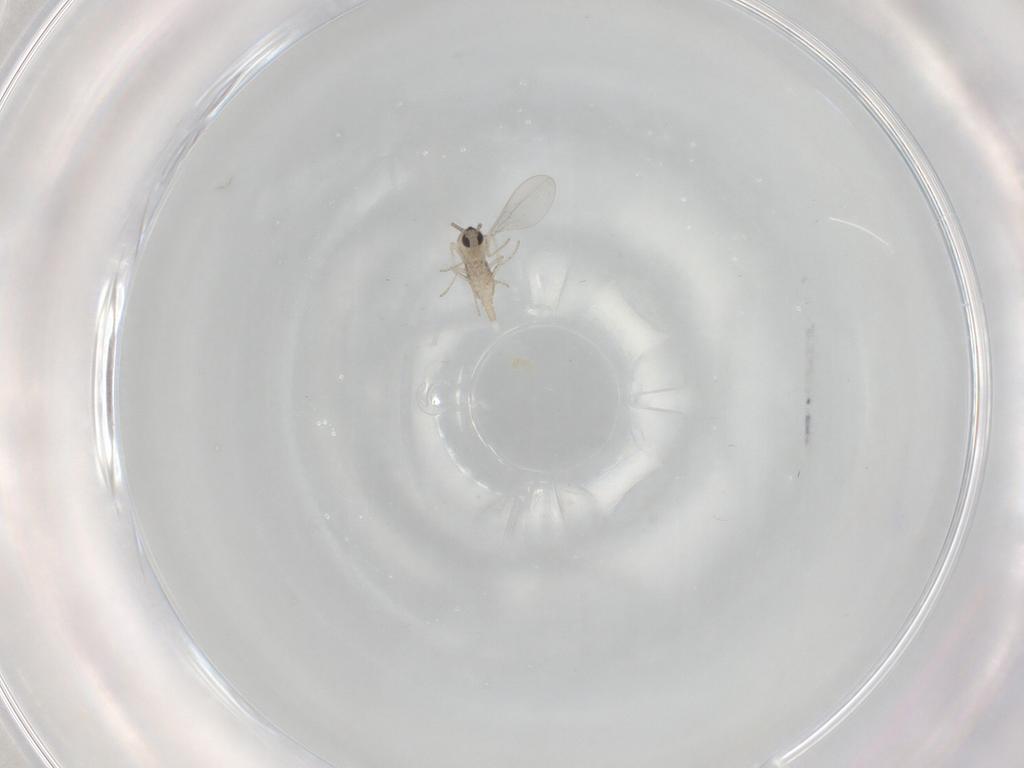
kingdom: Animalia
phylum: Arthropoda
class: Insecta
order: Diptera
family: Cecidomyiidae
